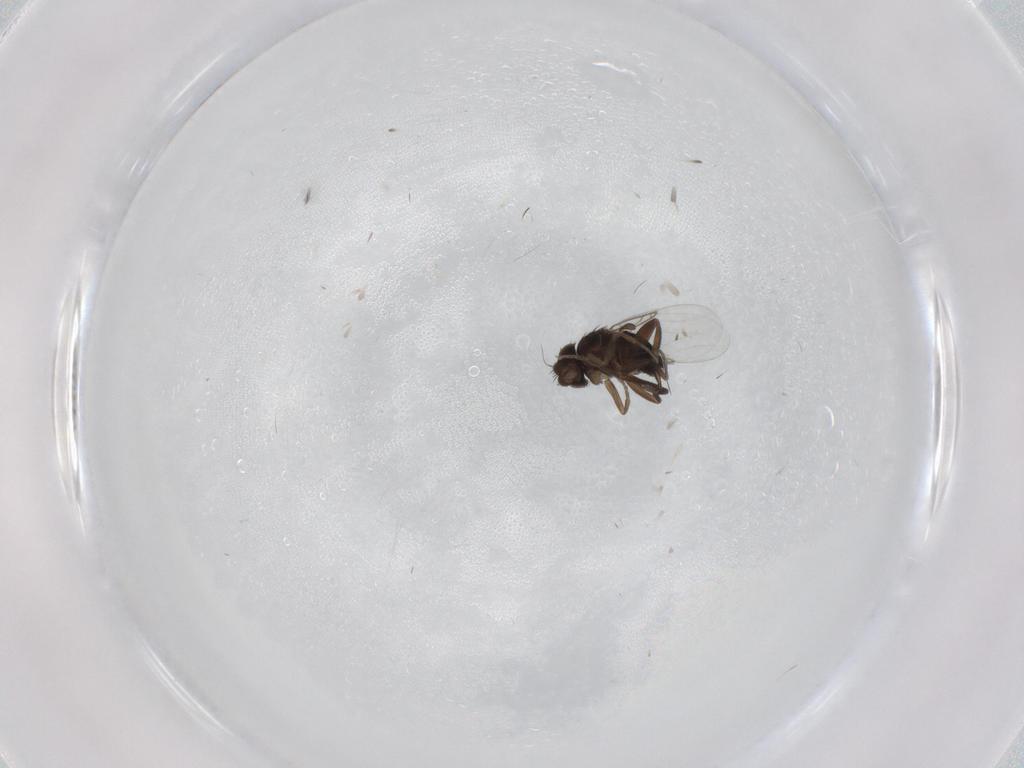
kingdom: Animalia
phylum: Arthropoda
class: Insecta
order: Diptera
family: Phoridae
